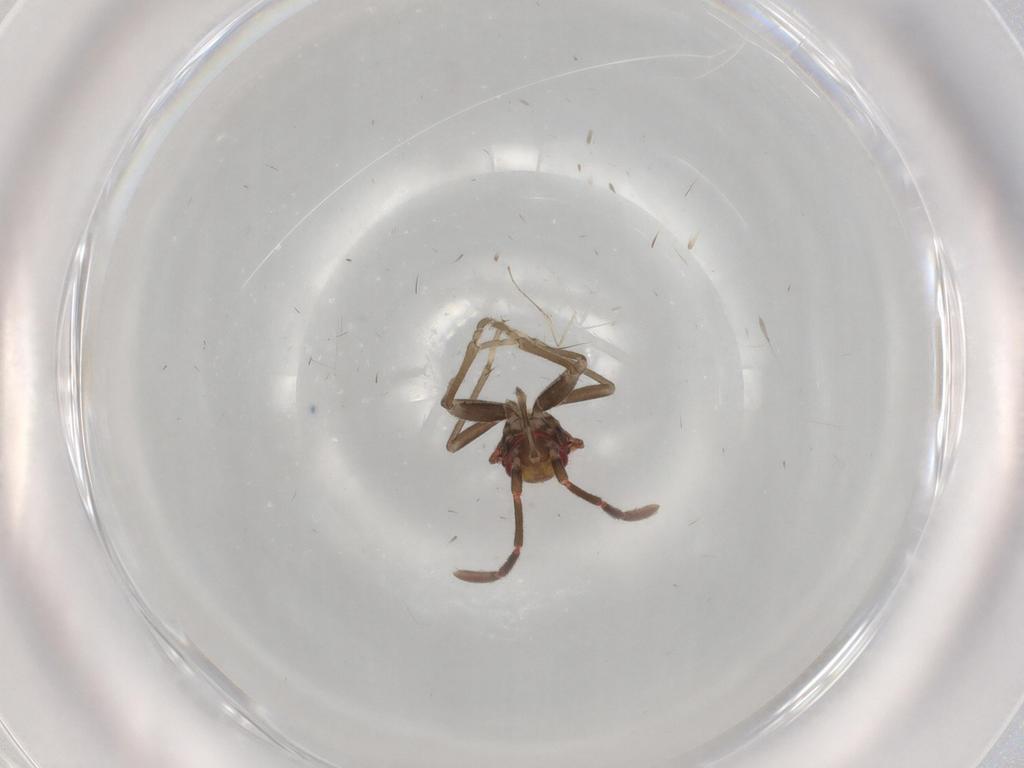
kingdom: Animalia
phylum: Arthropoda
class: Insecta
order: Hemiptera
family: Rhyparochromidae
